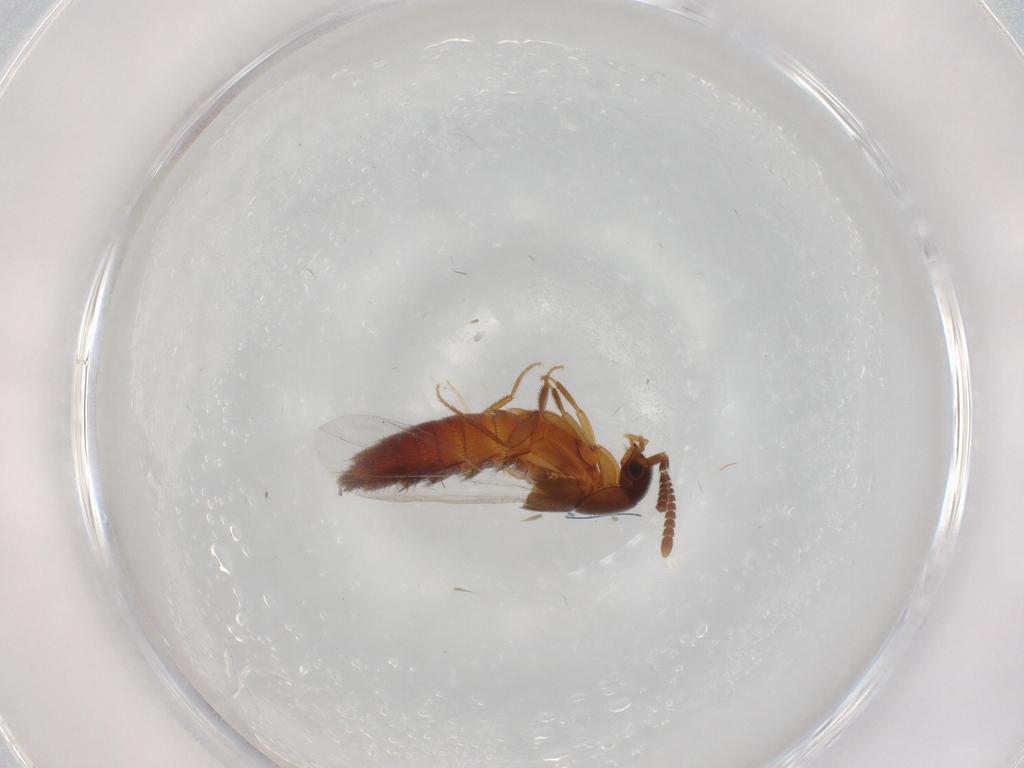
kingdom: Animalia
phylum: Arthropoda
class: Insecta
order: Coleoptera
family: Staphylinidae
